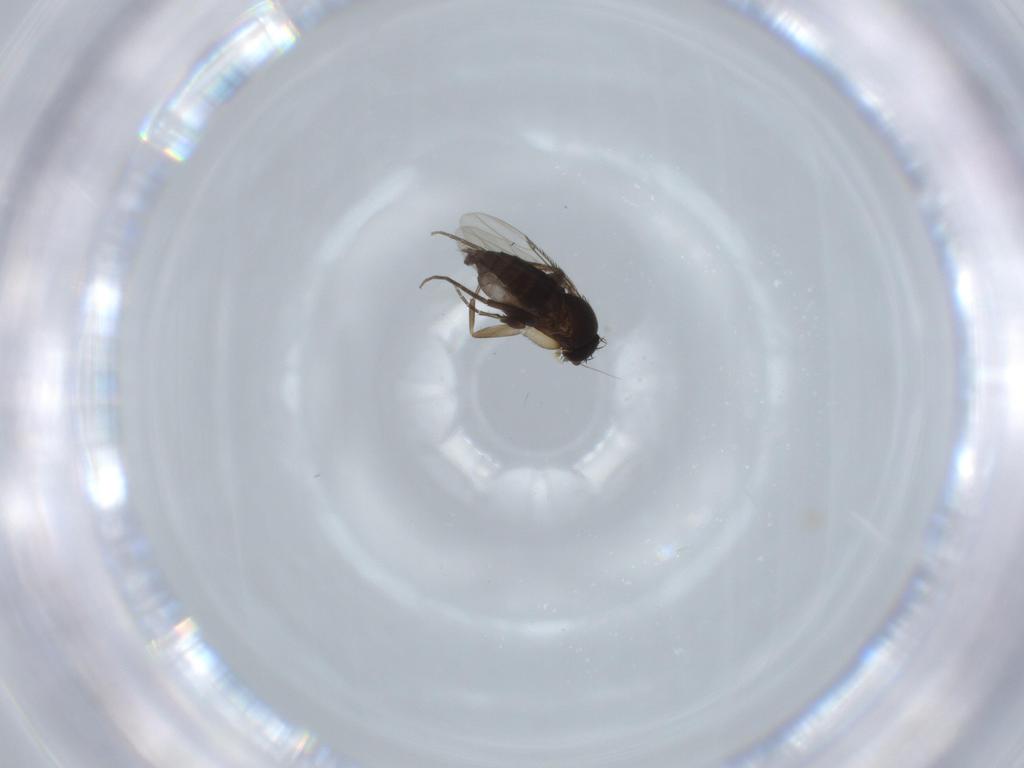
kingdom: Animalia
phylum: Arthropoda
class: Insecta
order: Diptera
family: Phoridae
